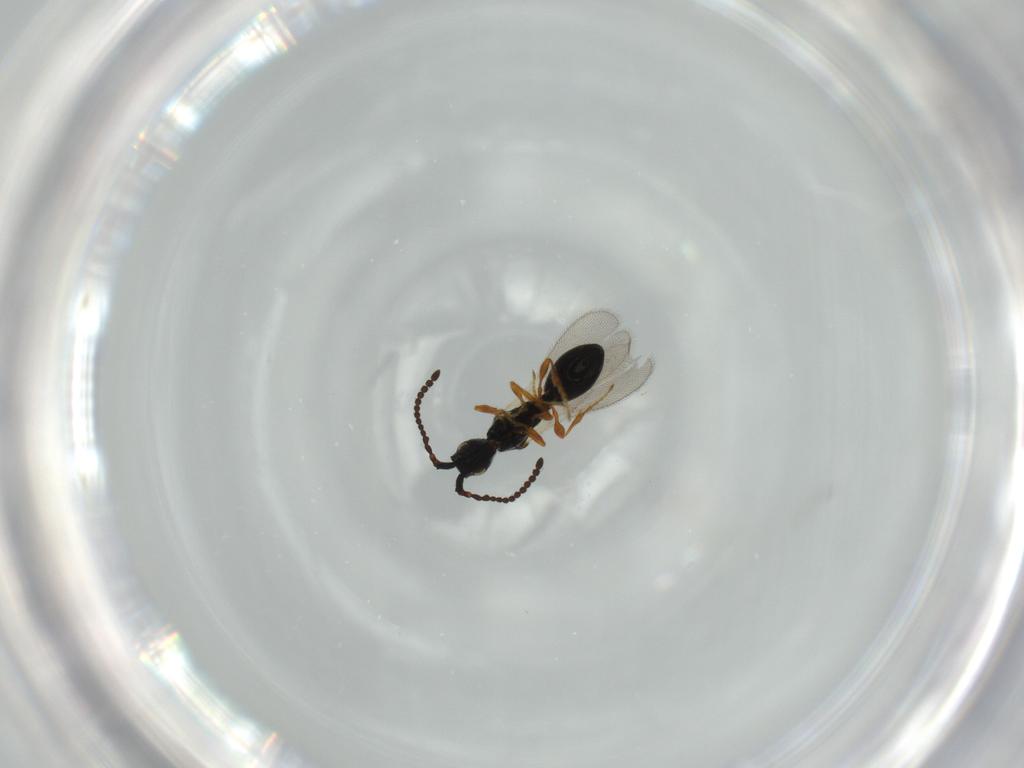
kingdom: Animalia
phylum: Arthropoda
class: Insecta
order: Hymenoptera
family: Diapriidae
